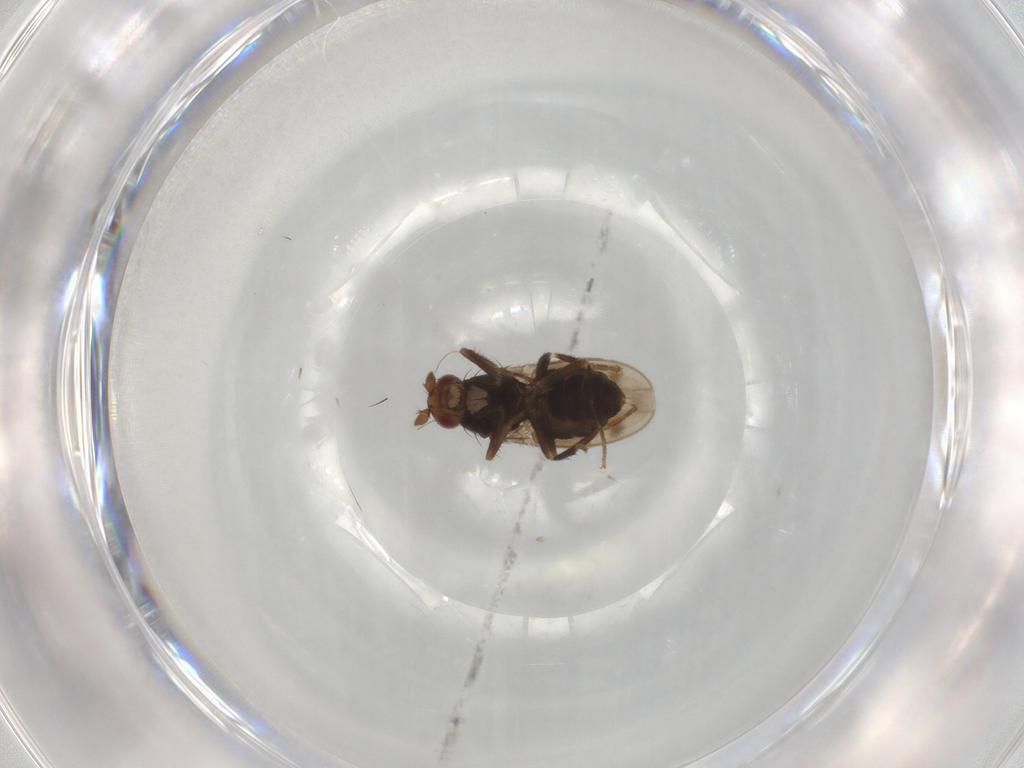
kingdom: Animalia
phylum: Arthropoda
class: Insecta
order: Diptera
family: Sphaeroceridae
